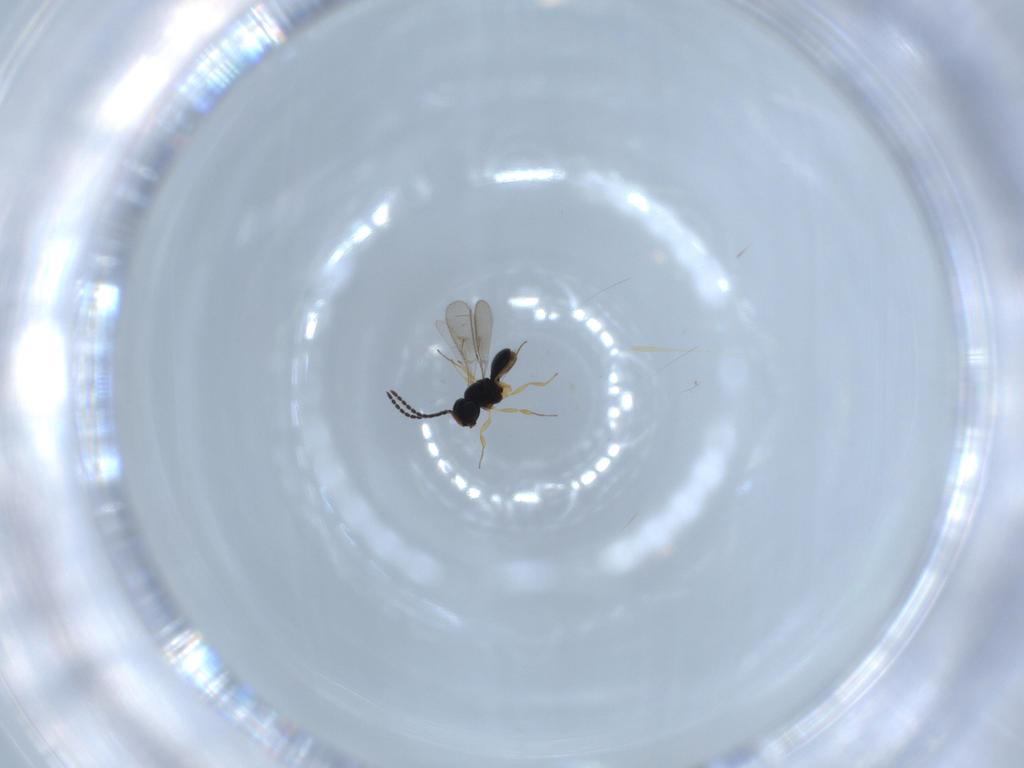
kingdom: Animalia
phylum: Arthropoda
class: Insecta
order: Hymenoptera
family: Scelionidae
